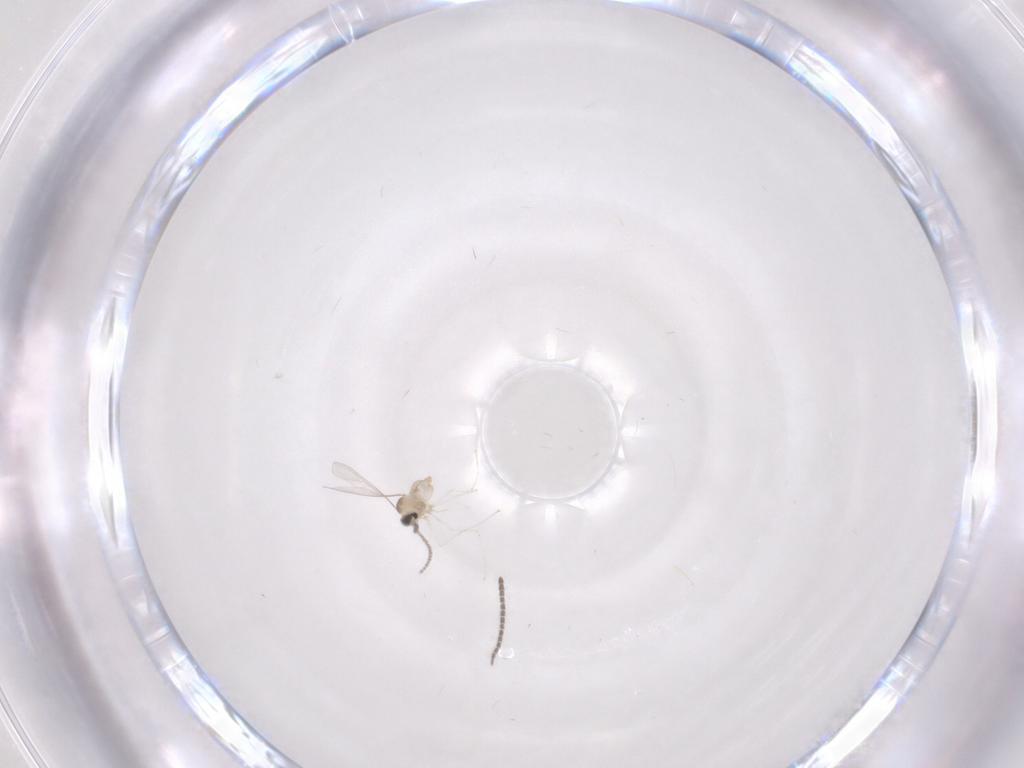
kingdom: Animalia
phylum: Arthropoda
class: Insecta
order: Diptera
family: Cecidomyiidae
